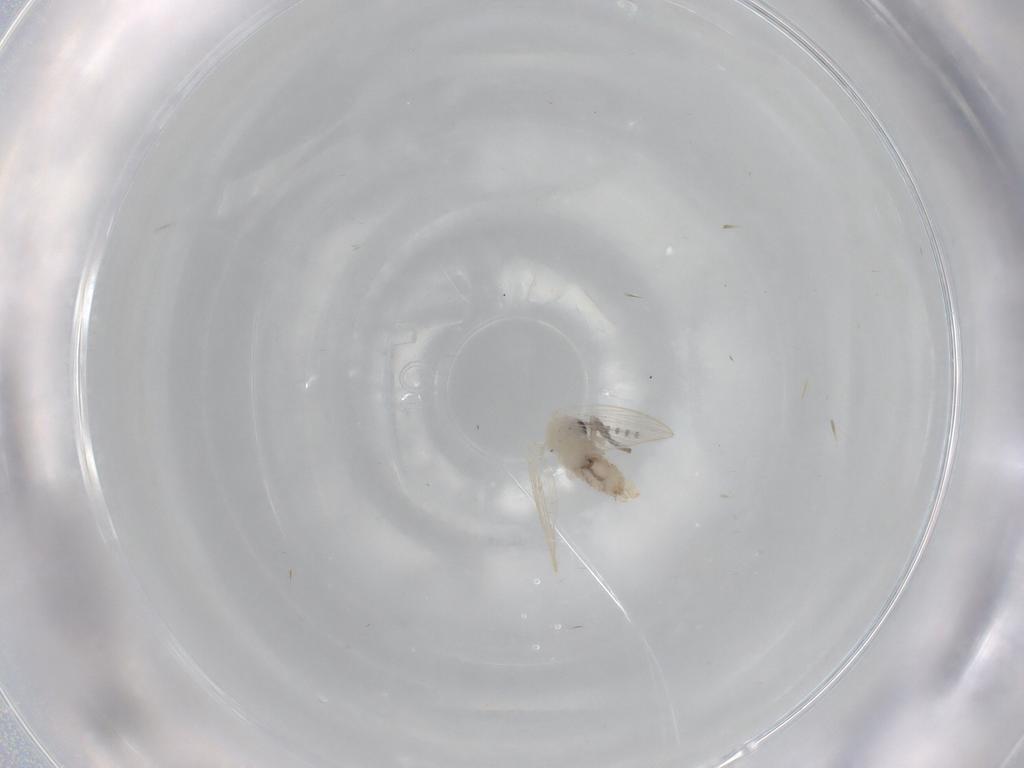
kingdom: Animalia
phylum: Arthropoda
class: Insecta
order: Diptera
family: Psychodidae
